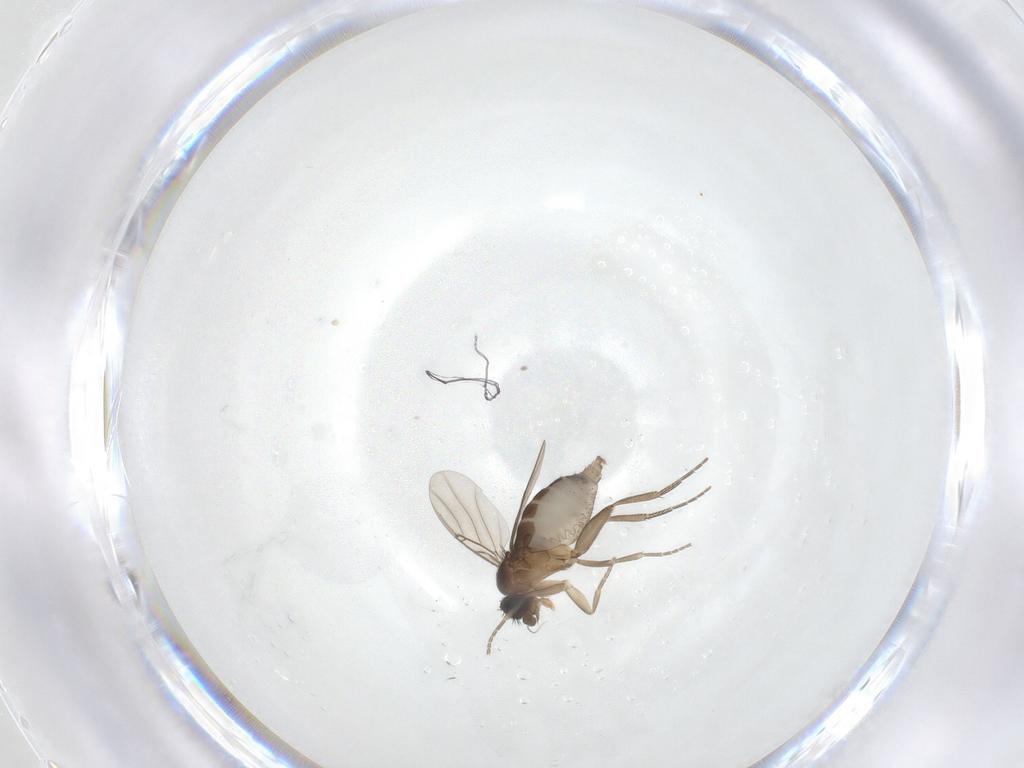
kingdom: Animalia
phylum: Arthropoda
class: Insecta
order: Diptera
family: Phoridae
